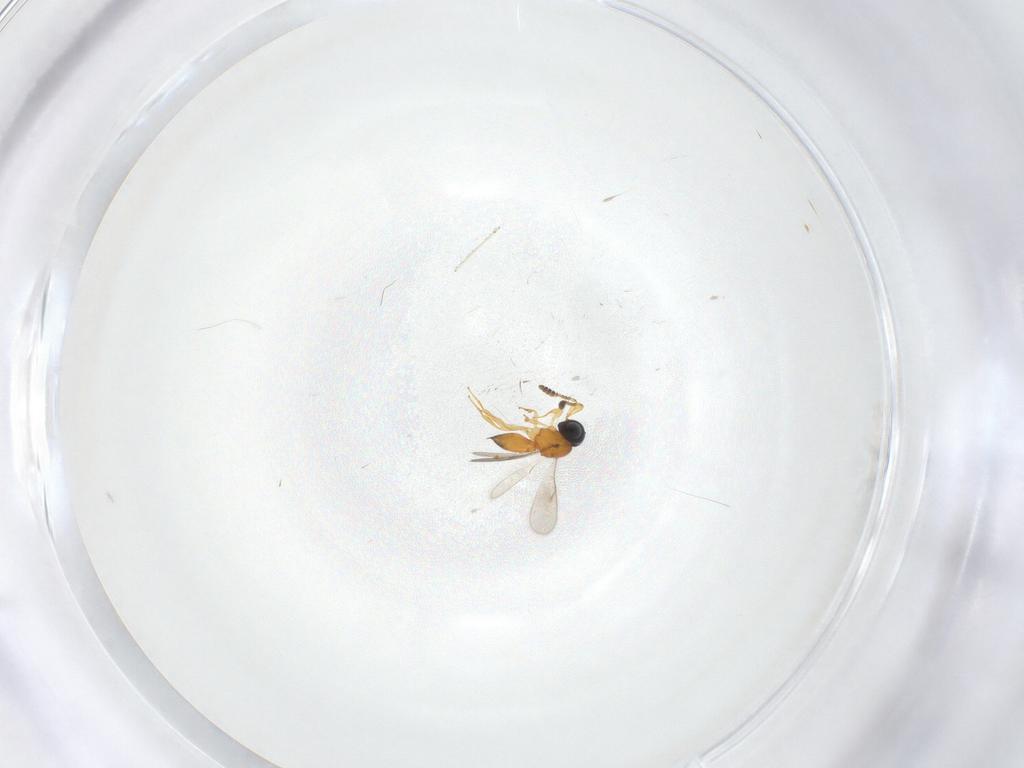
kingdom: Animalia
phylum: Arthropoda
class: Insecta
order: Hymenoptera
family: Scelionidae
